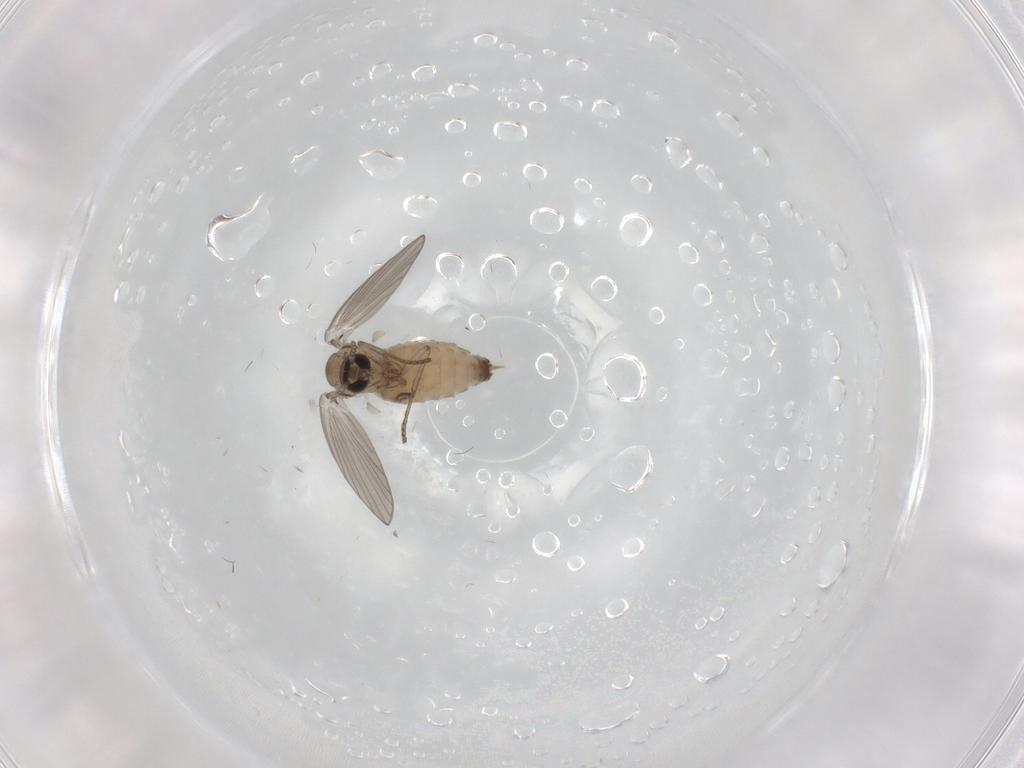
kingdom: Animalia
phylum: Arthropoda
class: Insecta
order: Diptera
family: Psychodidae
